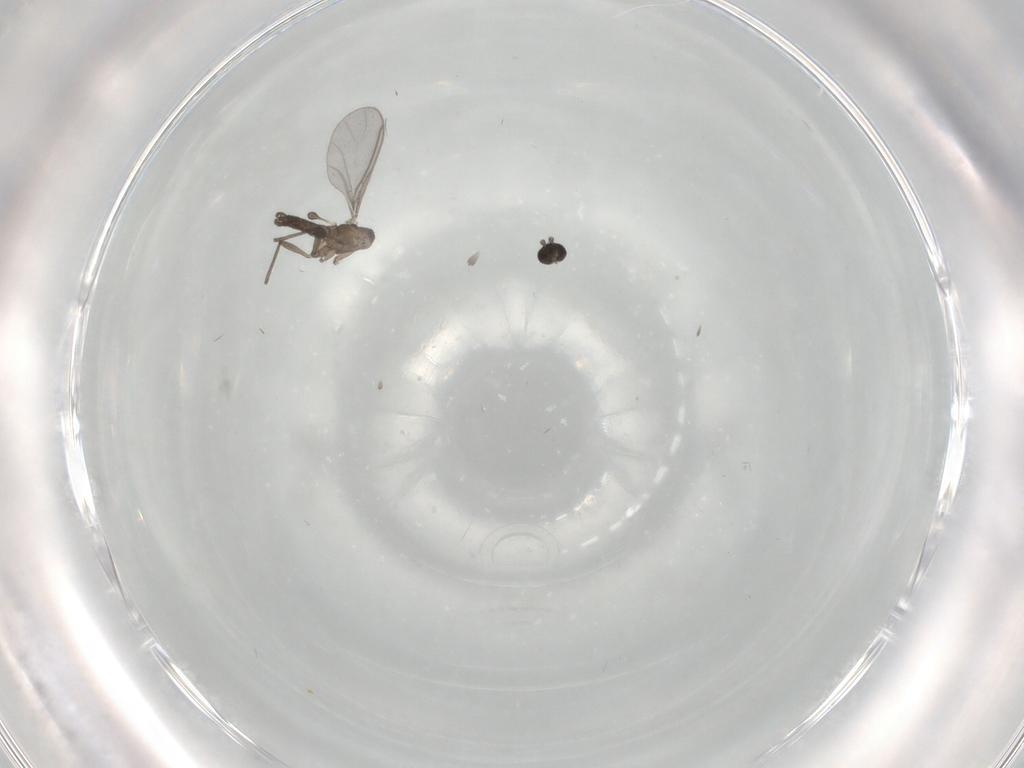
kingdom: Animalia
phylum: Arthropoda
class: Insecta
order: Diptera
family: Sciaridae
